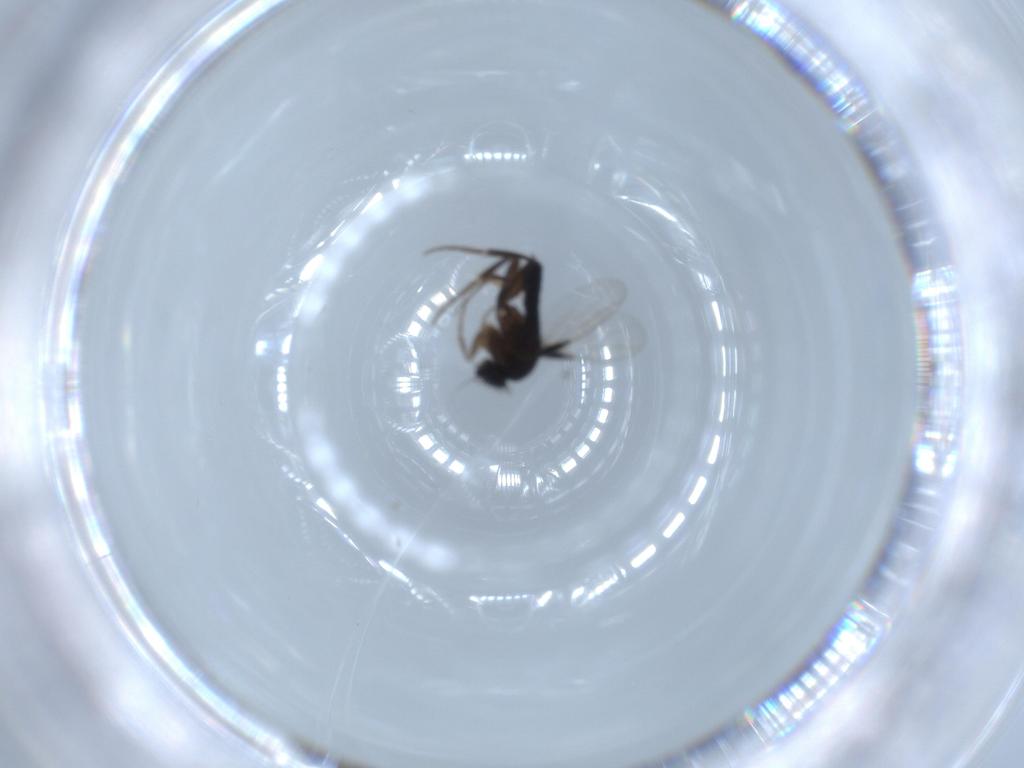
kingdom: Animalia
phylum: Arthropoda
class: Insecta
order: Diptera
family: Phoridae
